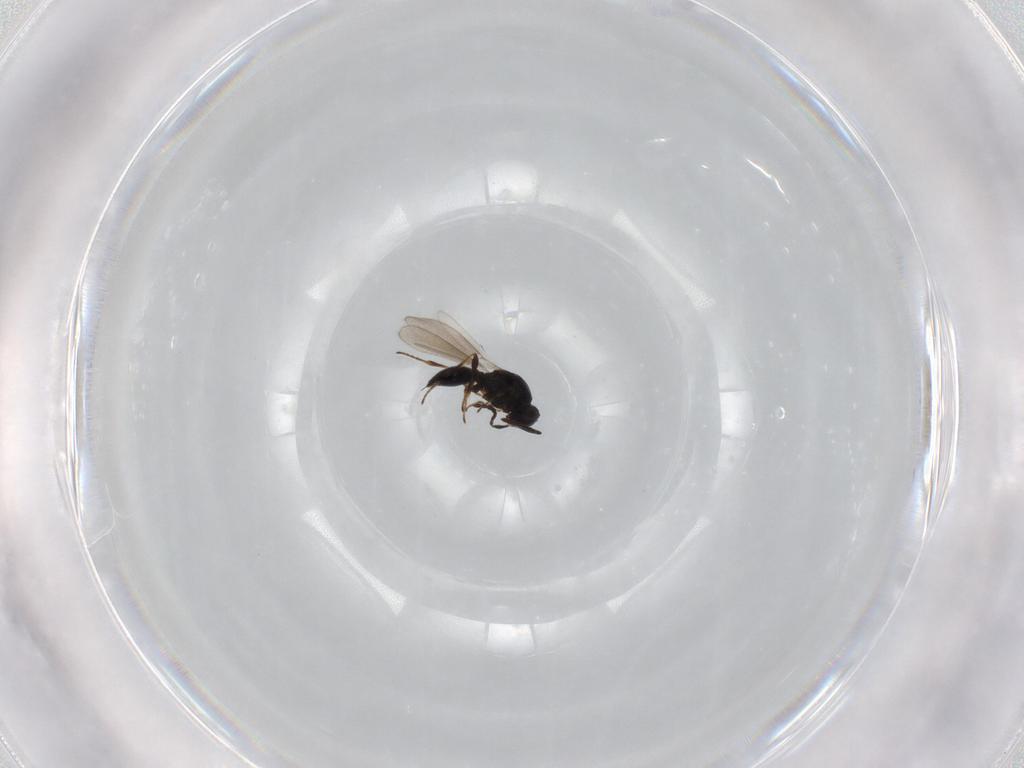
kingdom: Animalia
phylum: Arthropoda
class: Insecta
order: Hymenoptera
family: Platygastridae
